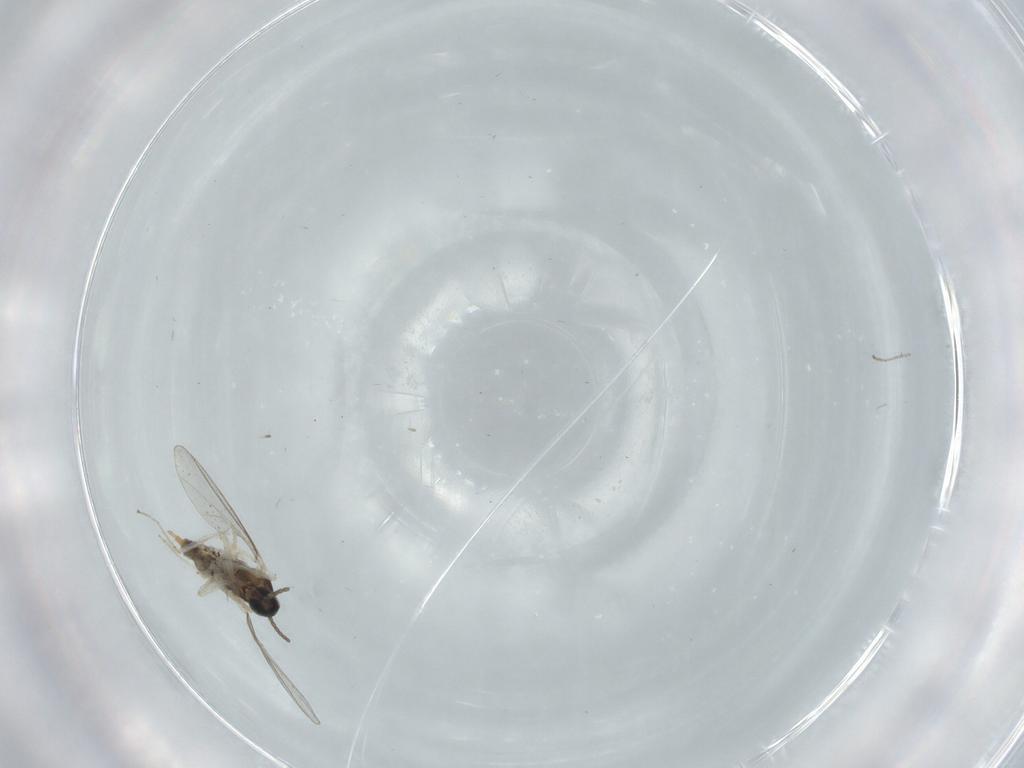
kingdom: Animalia
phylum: Arthropoda
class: Insecta
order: Diptera
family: Cecidomyiidae
